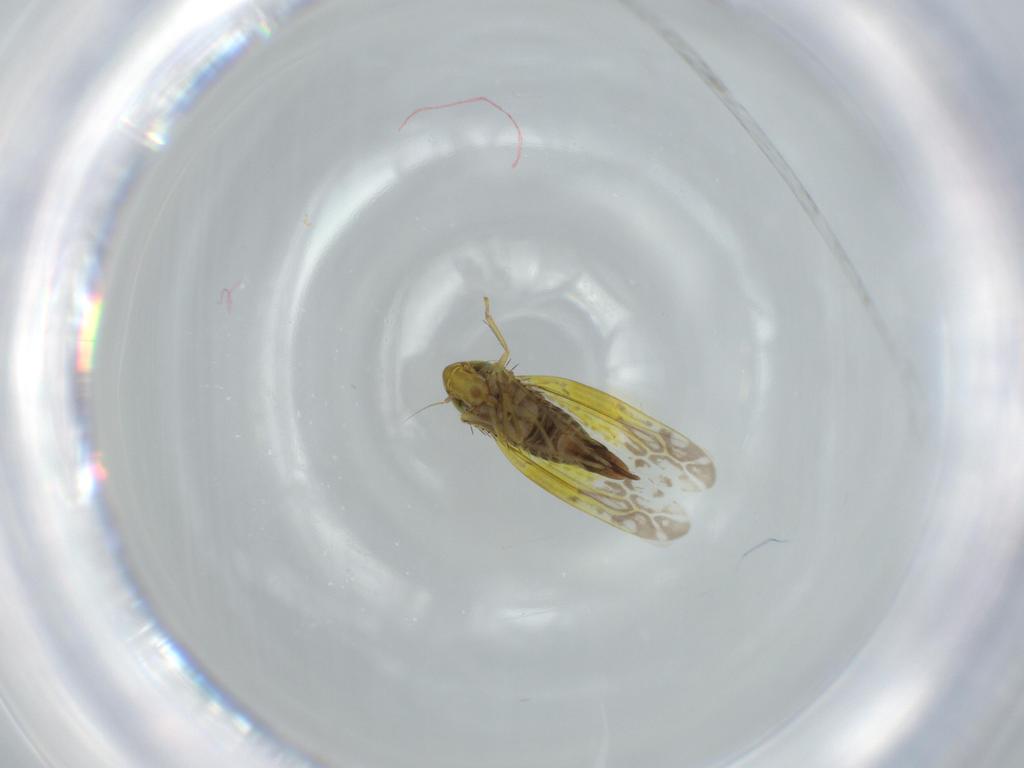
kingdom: Animalia
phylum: Arthropoda
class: Insecta
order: Hemiptera
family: Cicadellidae
